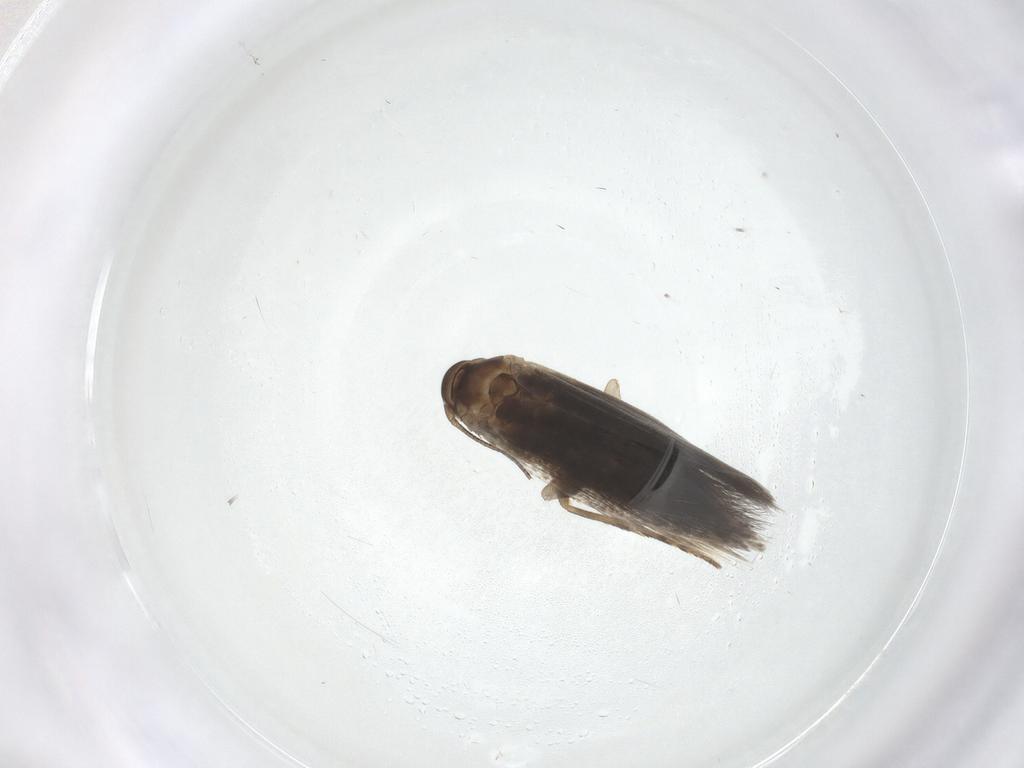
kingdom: Animalia
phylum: Arthropoda
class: Insecta
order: Lepidoptera
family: Elachistidae
